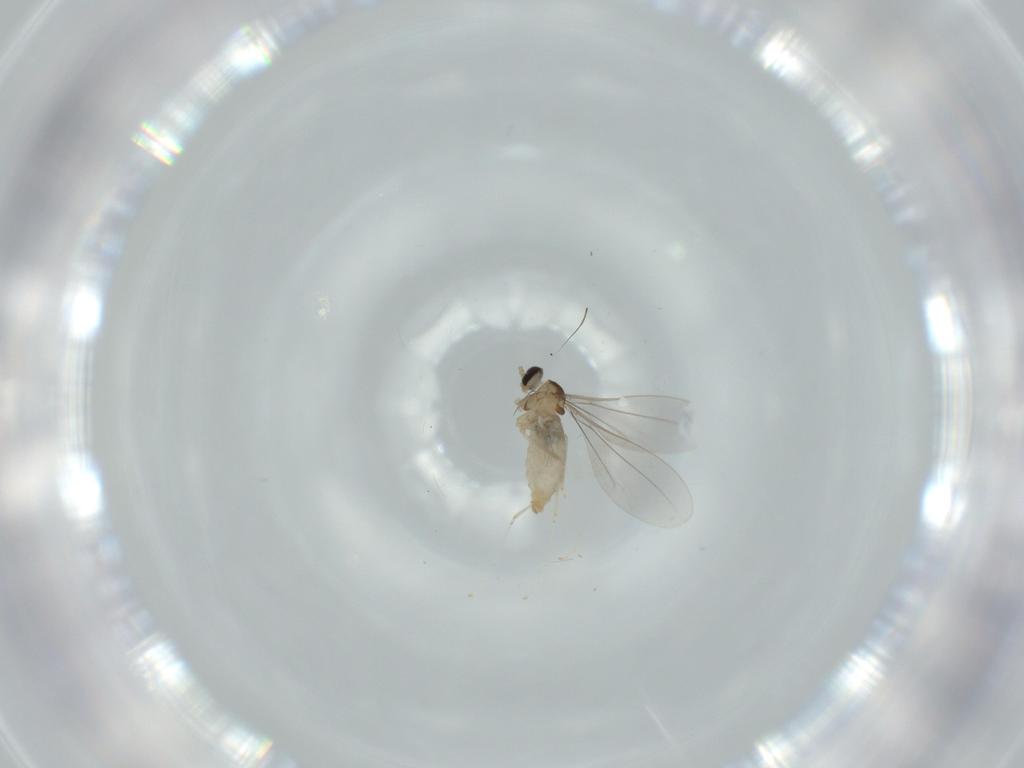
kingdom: Animalia
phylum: Arthropoda
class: Insecta
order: Diptera
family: Cecidomyiidae
